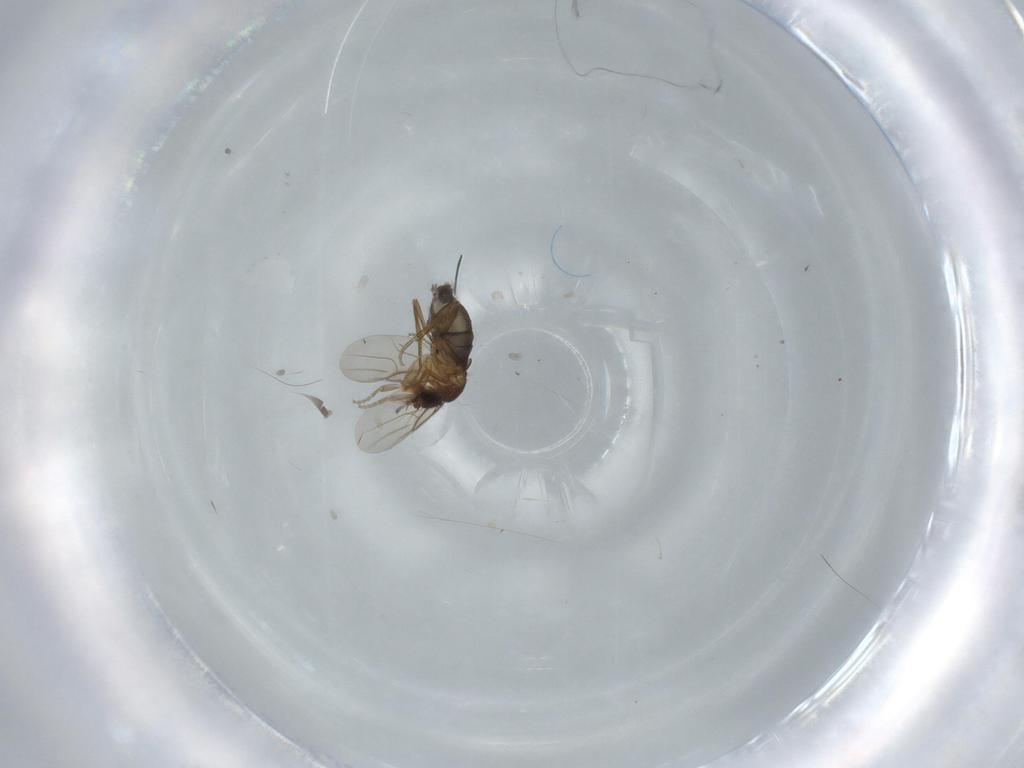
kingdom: Animalia
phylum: Arthropoda
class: Insecta
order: Diptera
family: Phoridae
